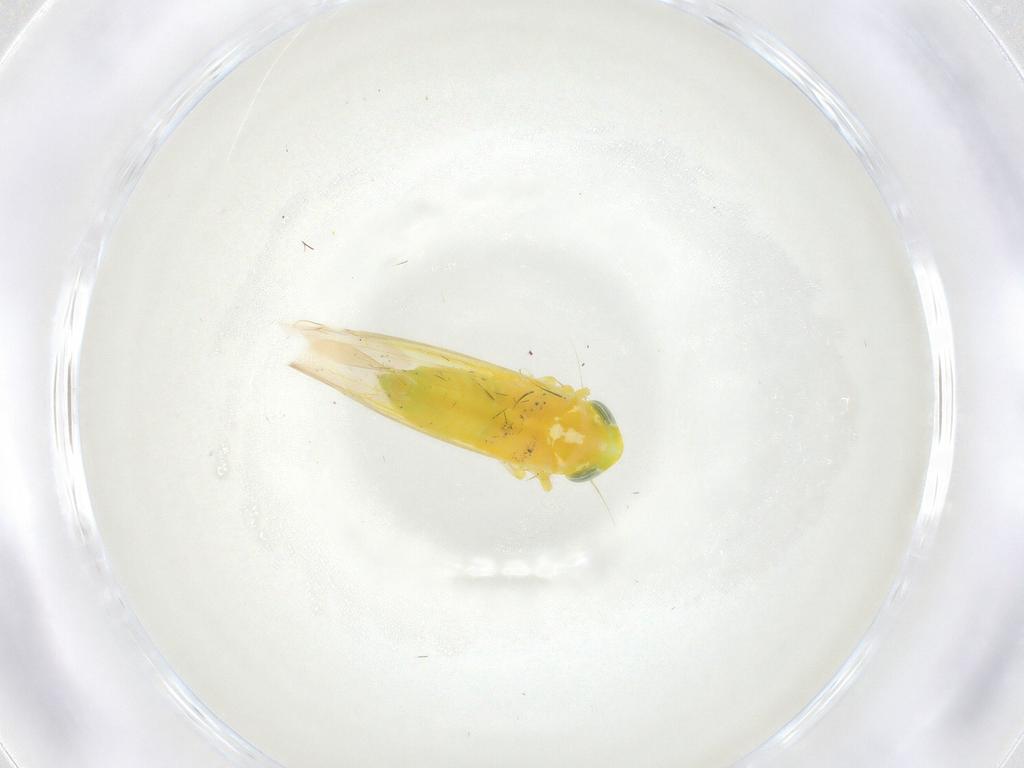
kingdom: Animalia
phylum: Arthropoda
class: Insecta
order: Hemiptera
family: Cicadellidae
